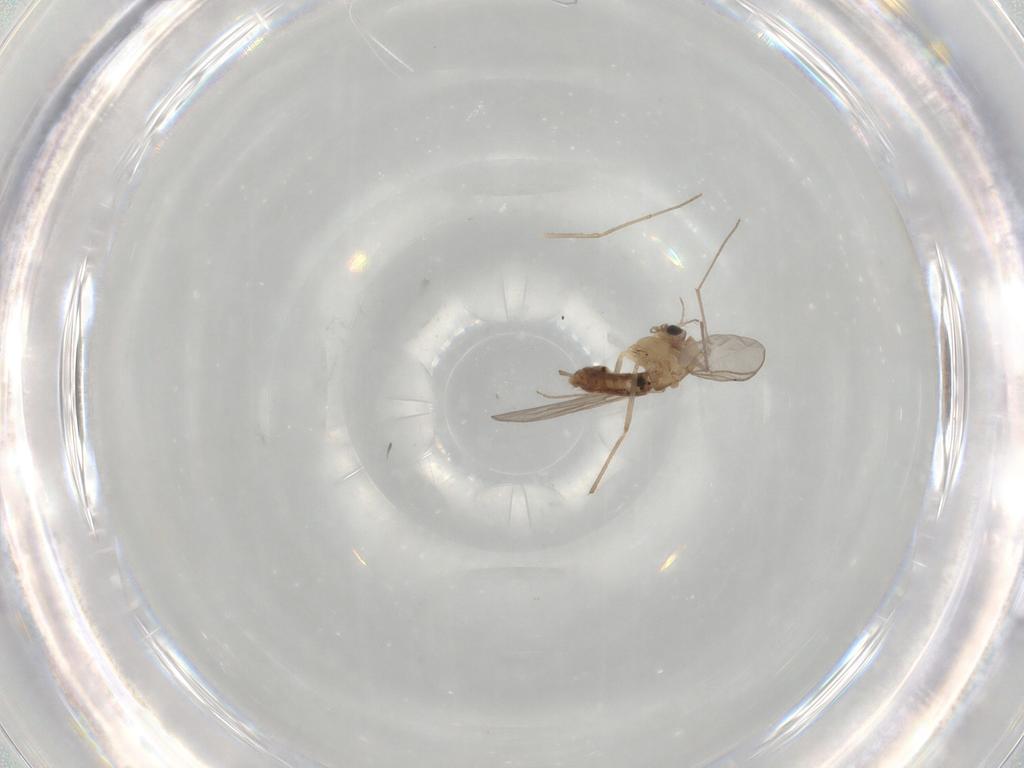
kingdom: Animalia
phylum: Arthropoda
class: Insecta
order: Diptera
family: Chironomidae
